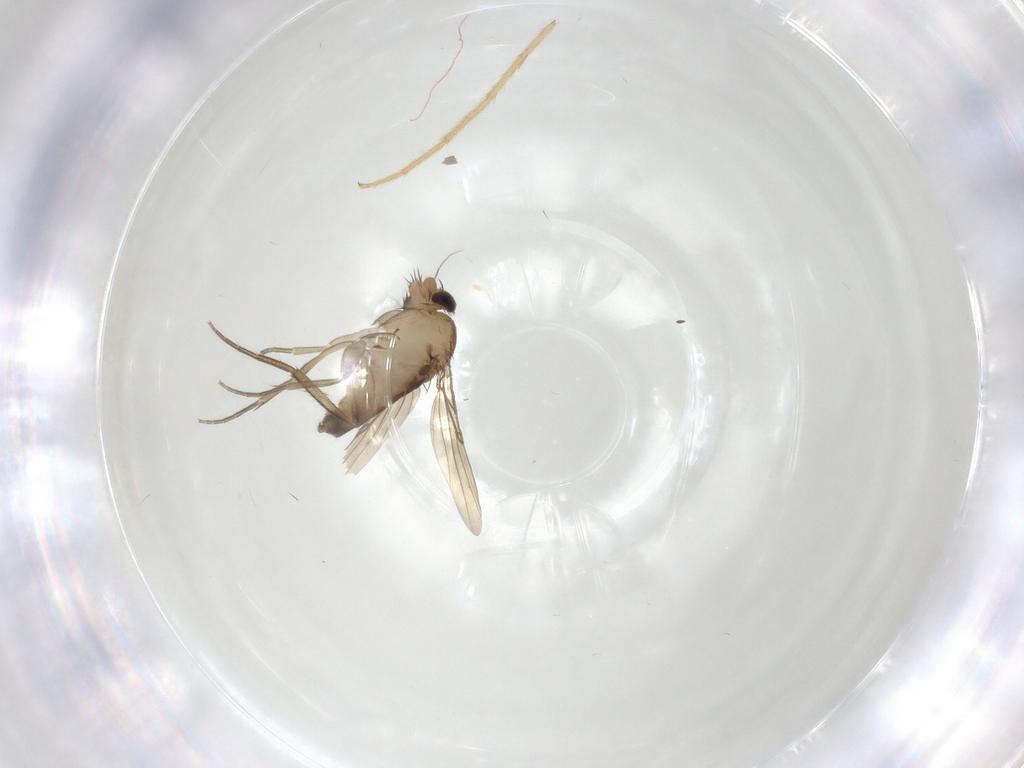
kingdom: Animalia
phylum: Arthropoda
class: Insecta
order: Diptera
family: Phoridae
